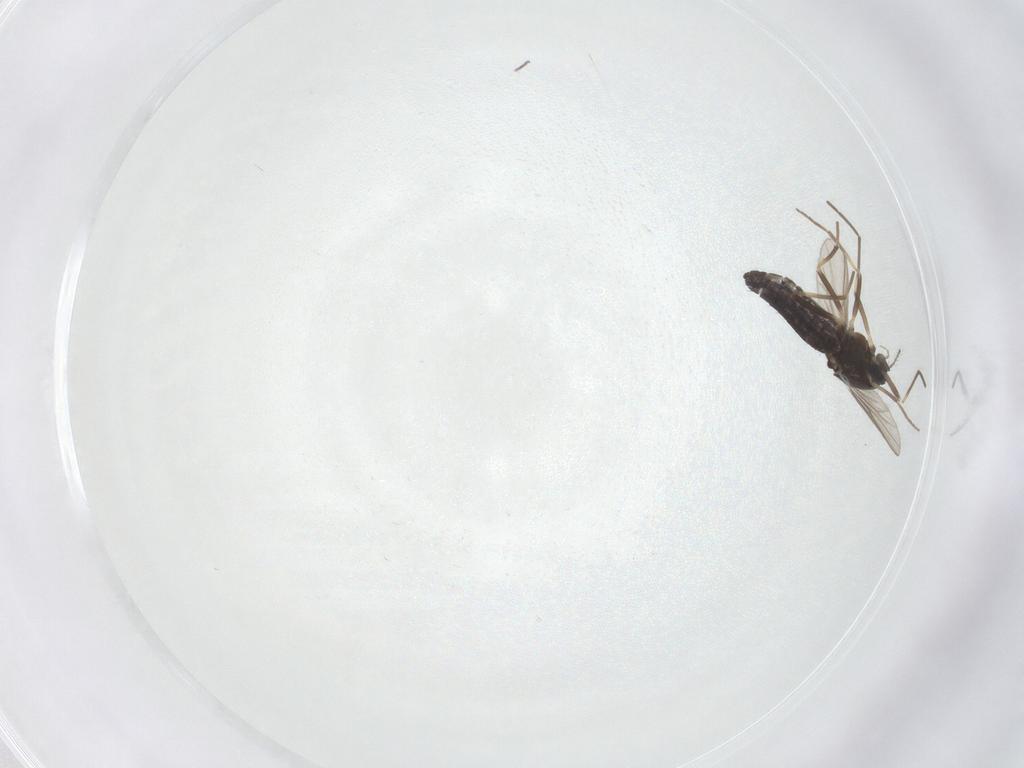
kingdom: Animalia
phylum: Arthropoda
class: Insecta
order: Diptera
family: Chironomidae
